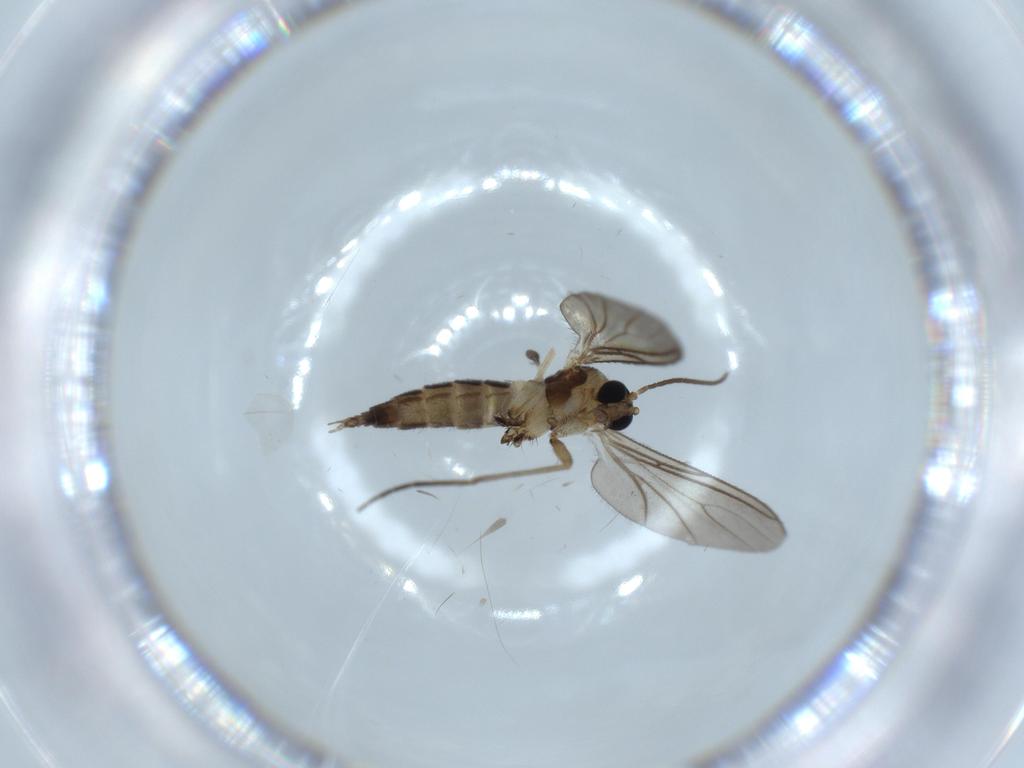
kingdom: Animalia
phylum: Arthropoda
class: Insecta
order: Diptera
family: Sciaridae
